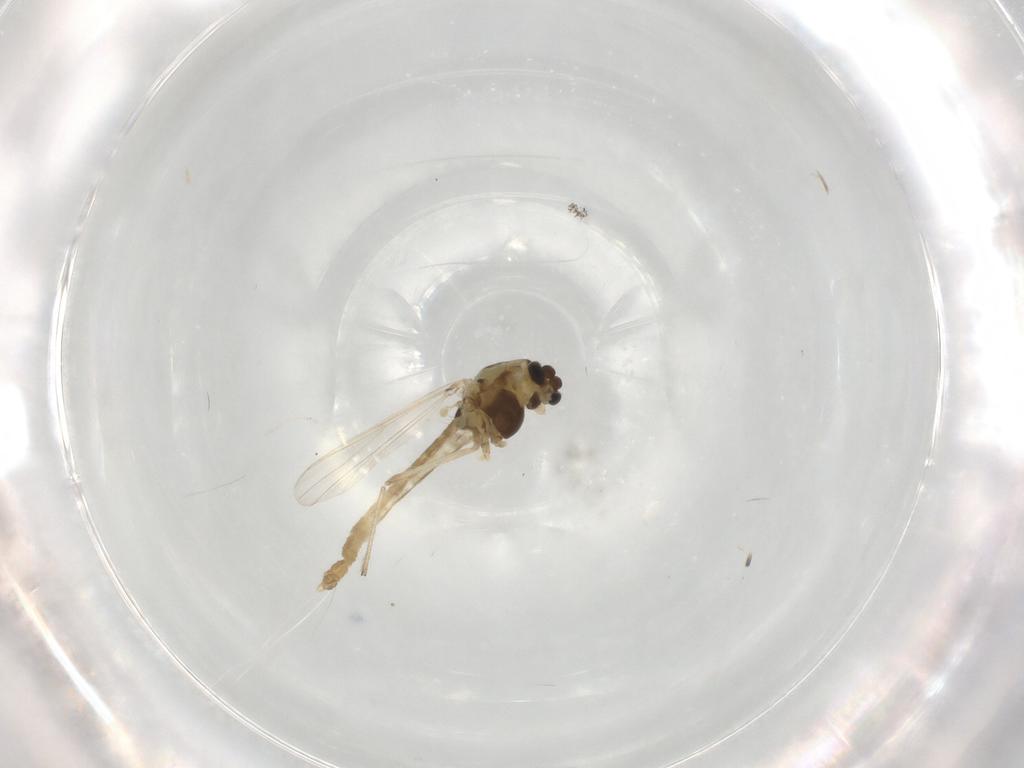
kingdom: Animalia
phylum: Arthropoda
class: Insecta
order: Diptera
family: Chironomidae
